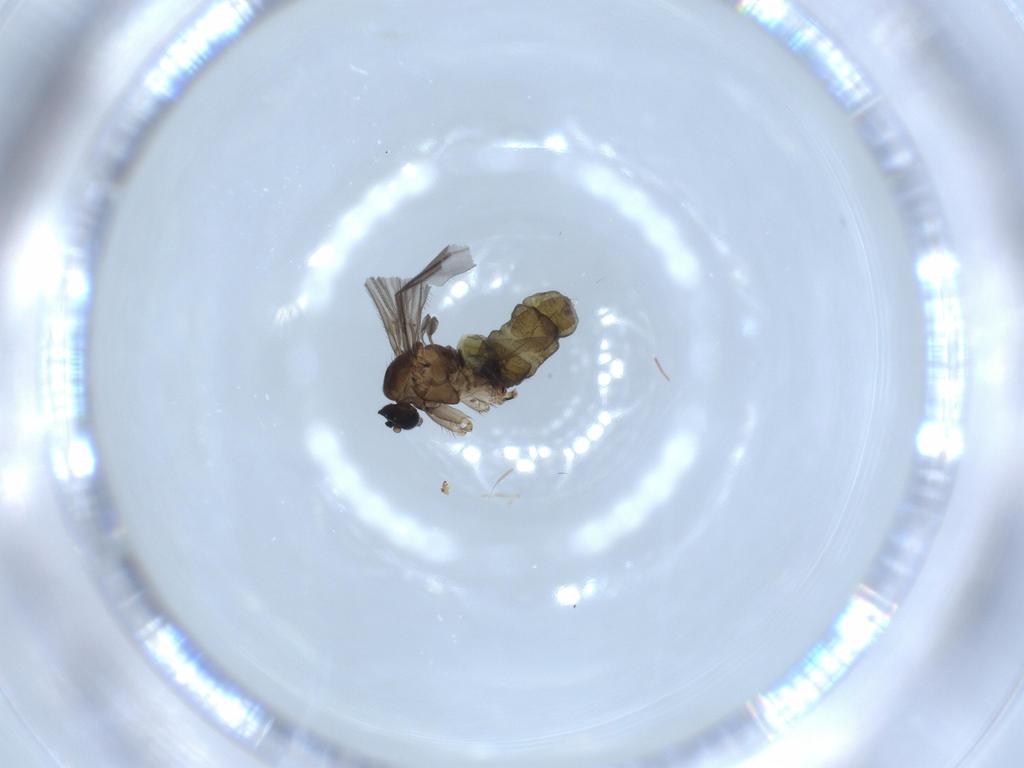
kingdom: Animalia
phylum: Arthropoda
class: Insecta
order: Diptera
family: Sciaridae
